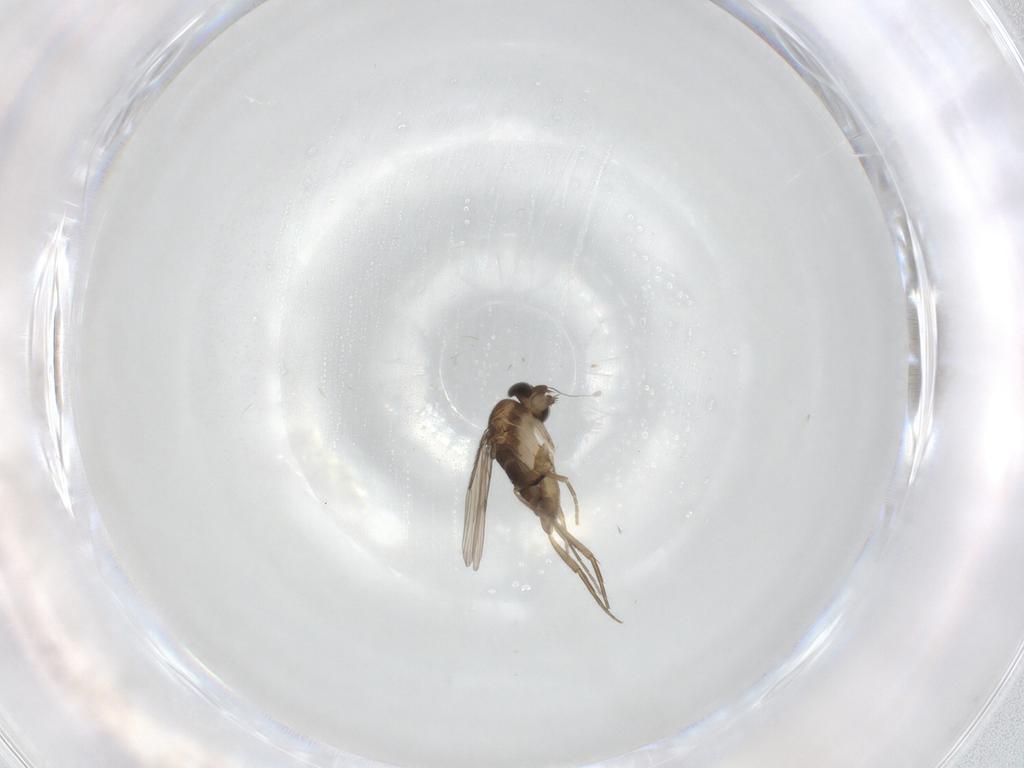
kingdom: Animalia
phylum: Arthropoda
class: Insecta
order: Diptera
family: Phoridae
